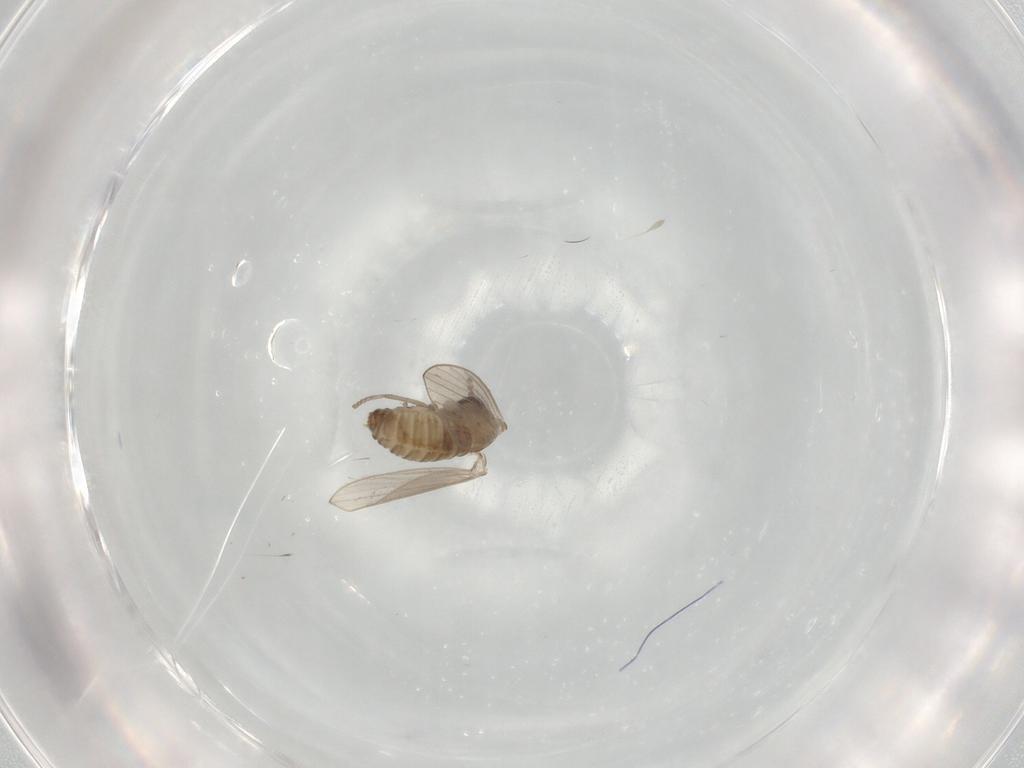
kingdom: Animalia
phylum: Arthropoda
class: Insecta
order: Diptera
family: Psychodidae
